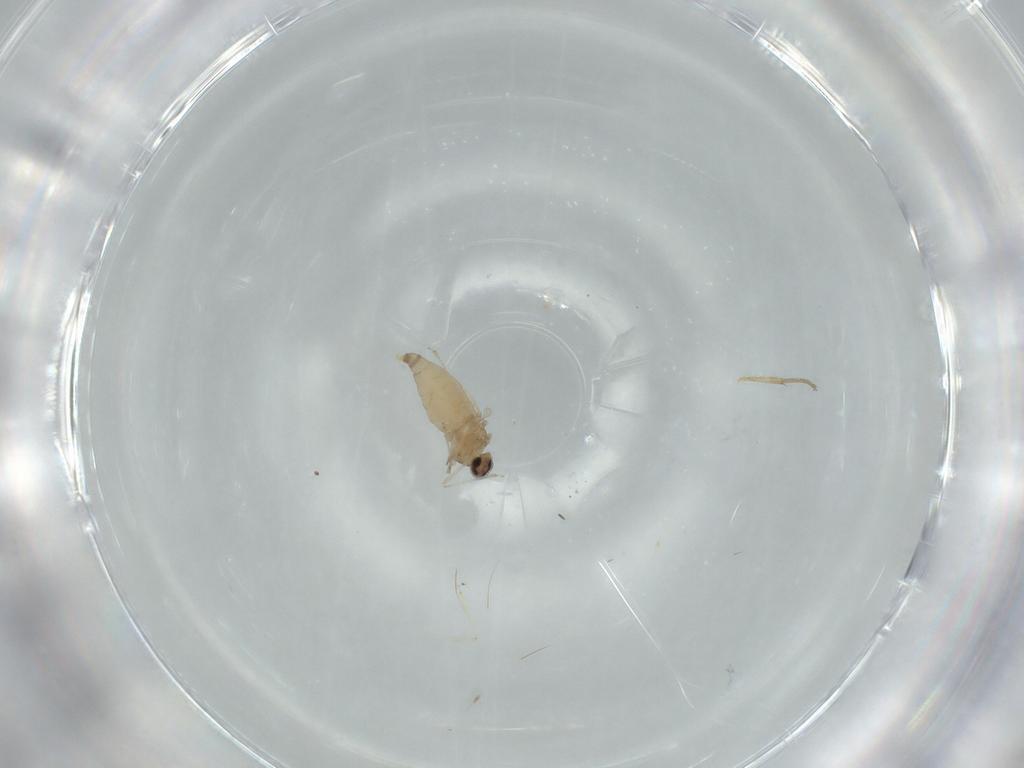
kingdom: Animalia
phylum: Arthropoda
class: Insecta
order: Diptera
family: Cecidomyiidae
